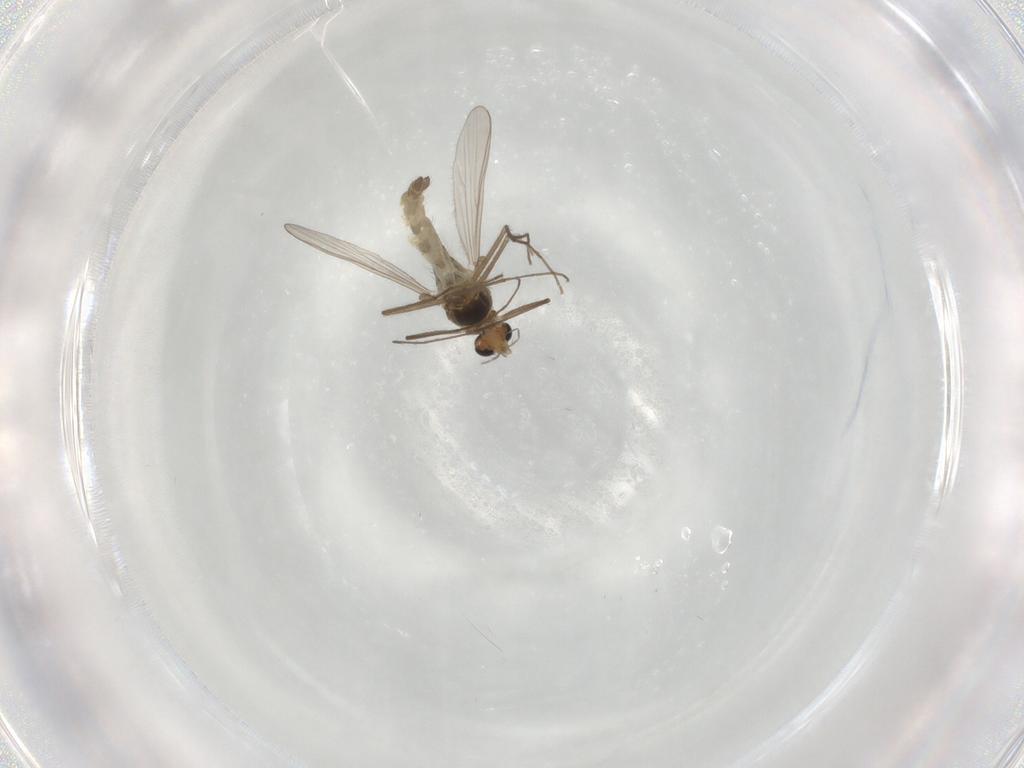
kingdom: Animalia
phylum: Arthropoda
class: Insecta
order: Diptera
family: Chironomidae
